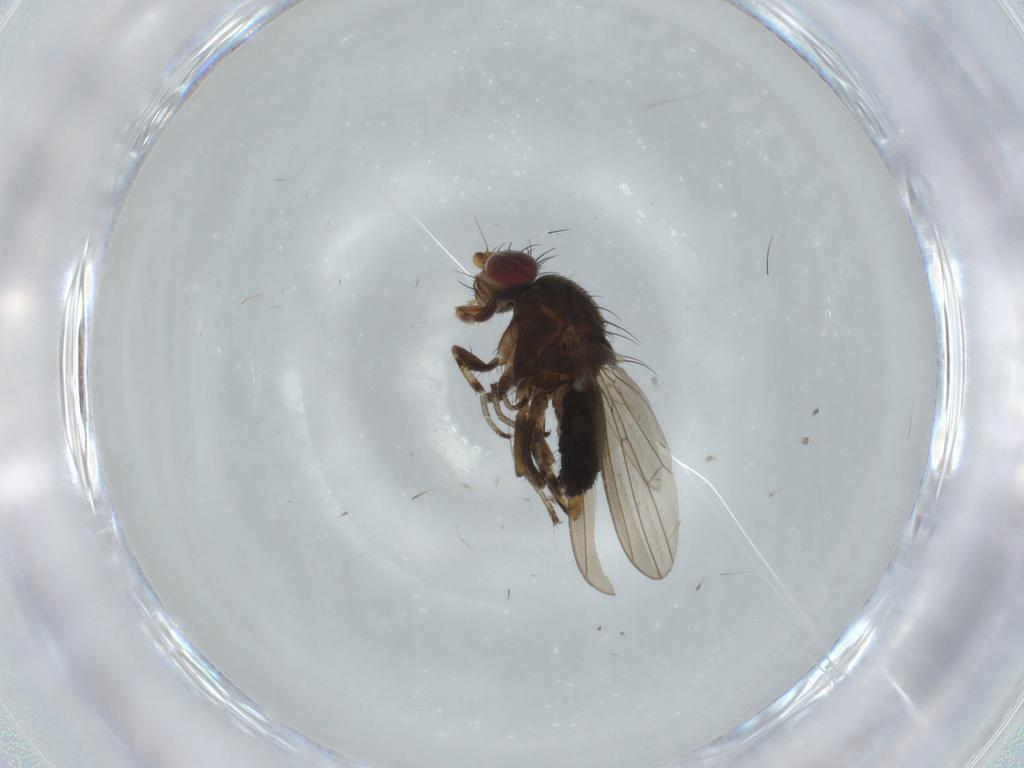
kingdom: Animalia
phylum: Arthropoda
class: Insecta
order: Diptera
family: Heleomyzidae
